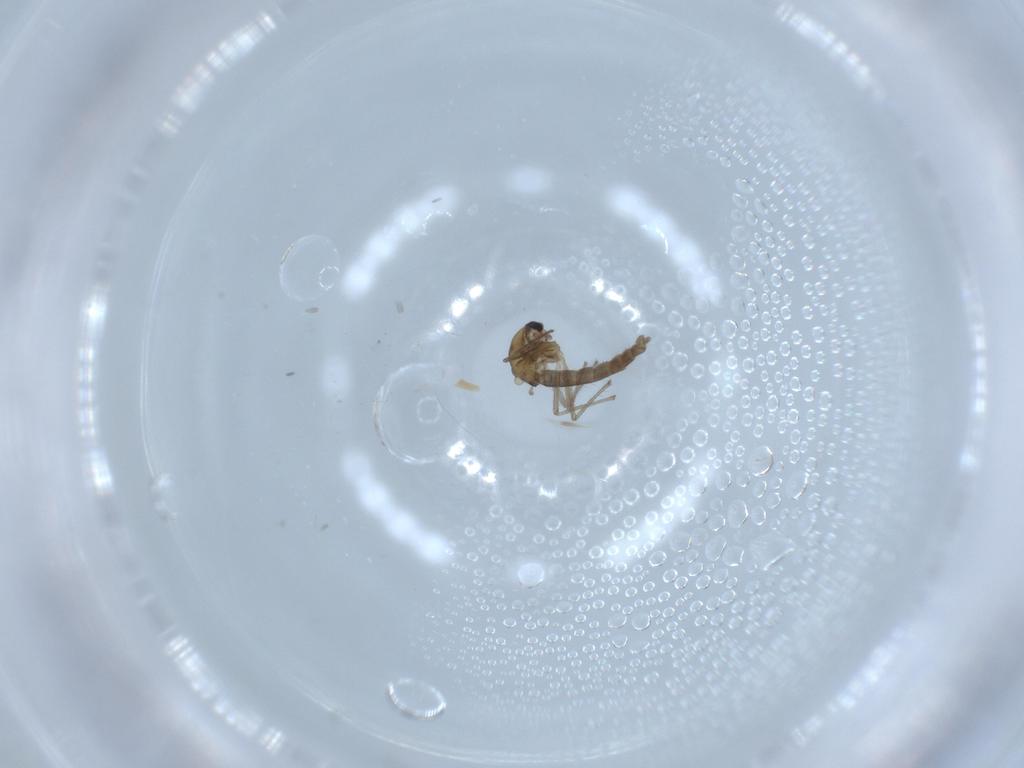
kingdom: Animalia
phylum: Arthropoda
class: Insecta
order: Diptera
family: Chironomidae
